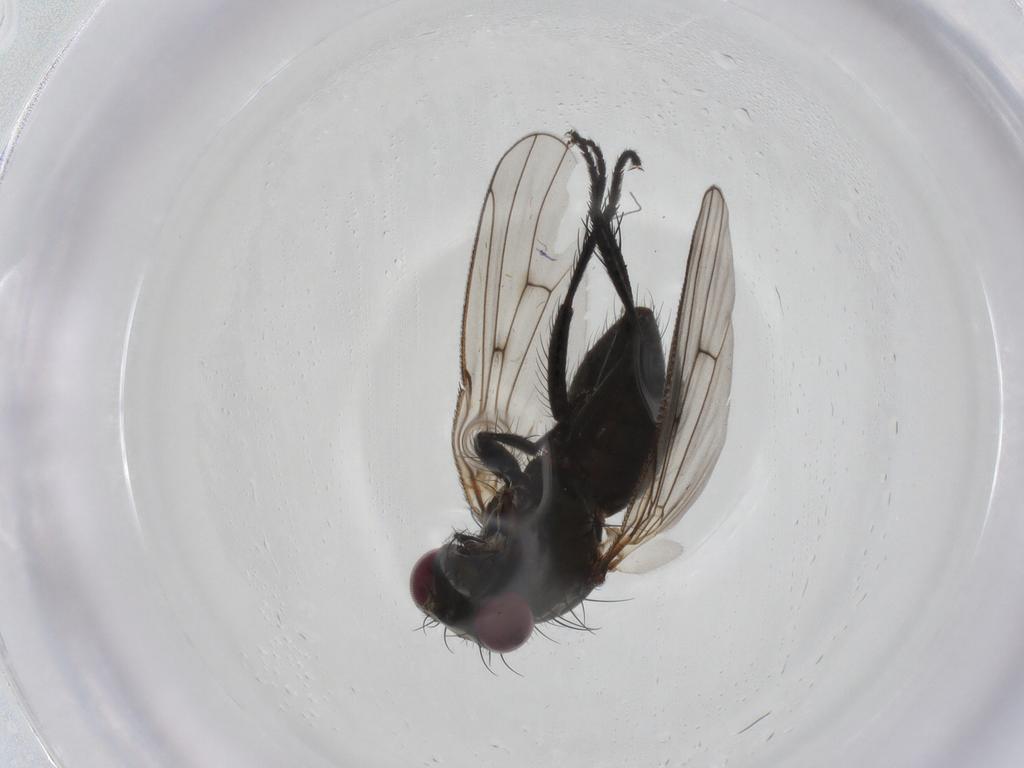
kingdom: Animalia
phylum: Arthropoda
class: Insecta
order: Diptera
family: Muscidae
